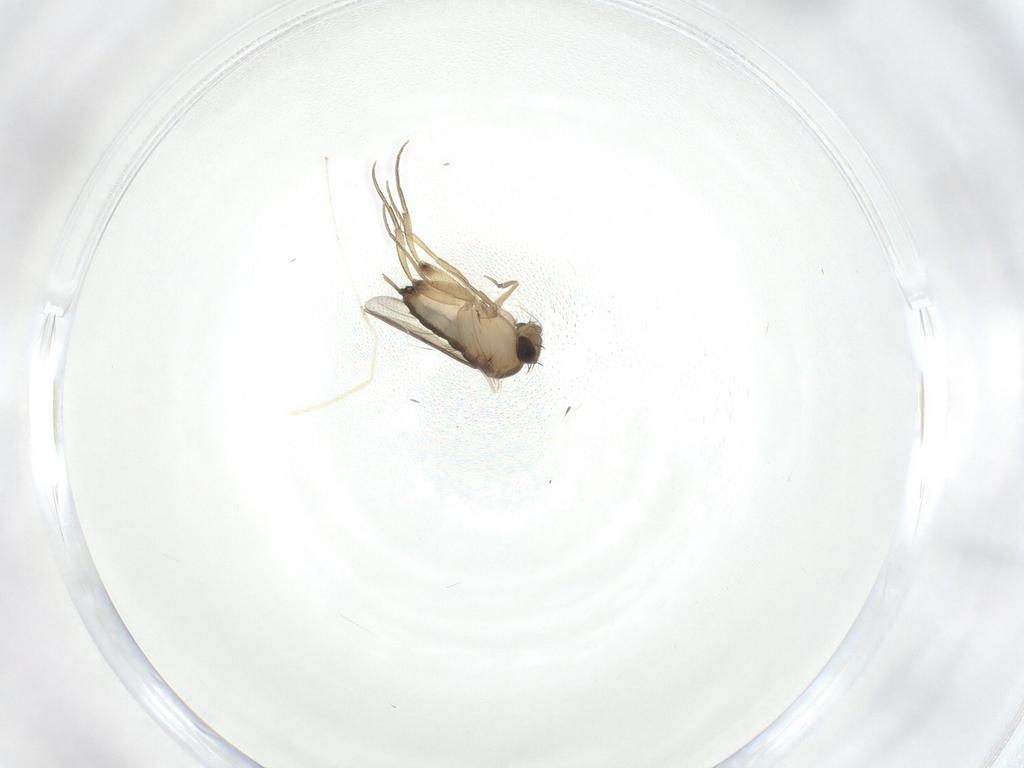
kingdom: Animalia
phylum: Arthropoda
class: Insecta
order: Diptera
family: Phoridae
